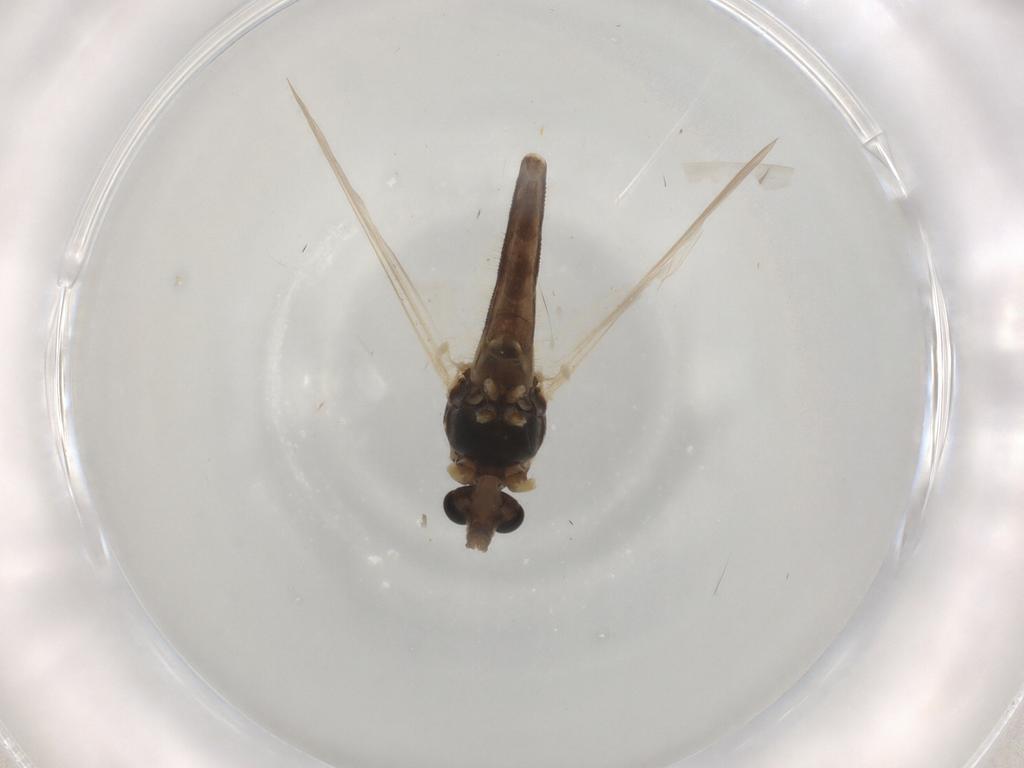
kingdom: Animalia
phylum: Arthropoda
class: Insecta
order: Diptera
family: Chironomidae
